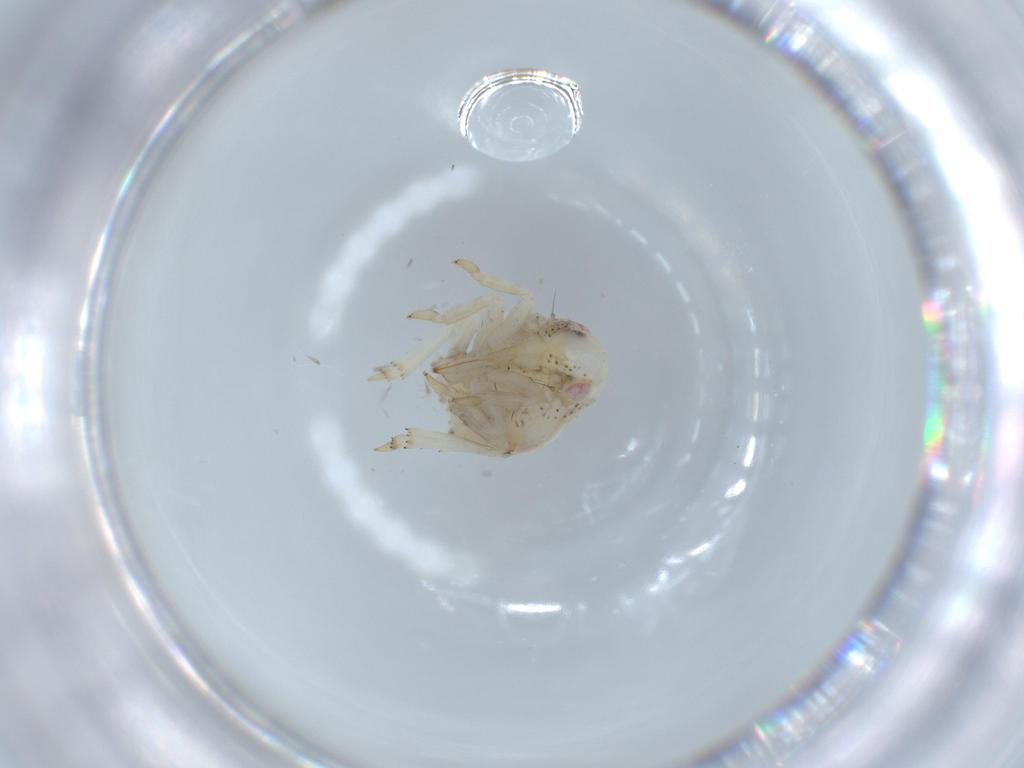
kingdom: Animalia
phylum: Arthropoda
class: Insecta
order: Hemiptera
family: Acanaloniidae
